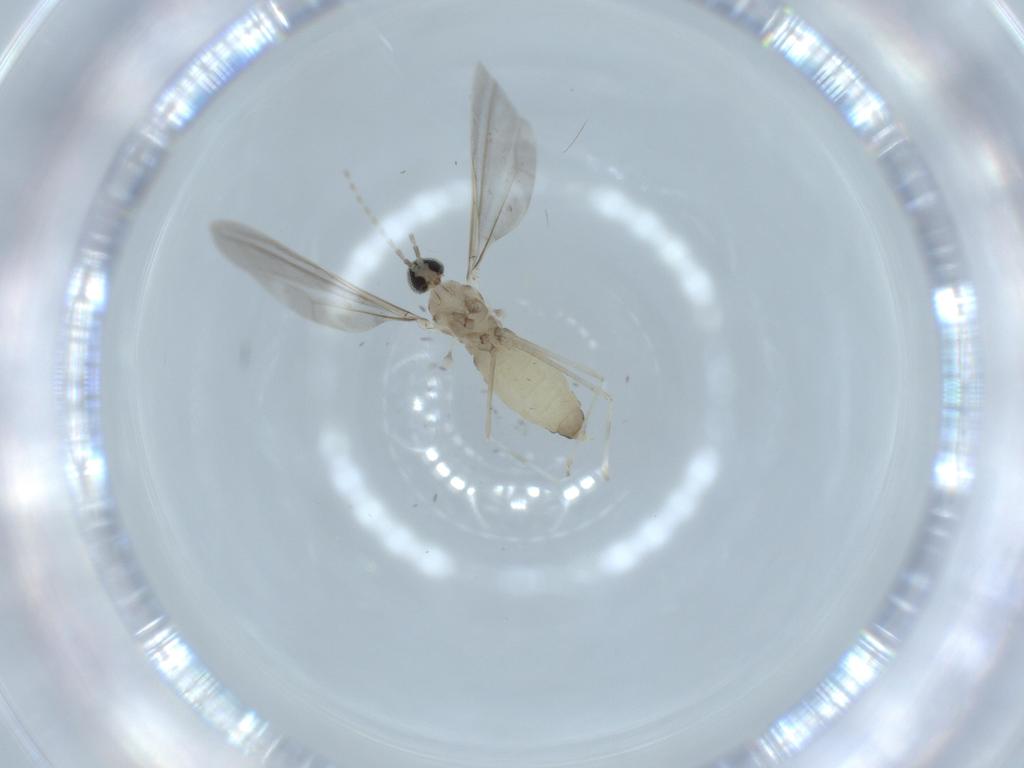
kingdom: Animalia
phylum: Arthropoda
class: Insecta
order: Diptera
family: Cecidomyiidae
